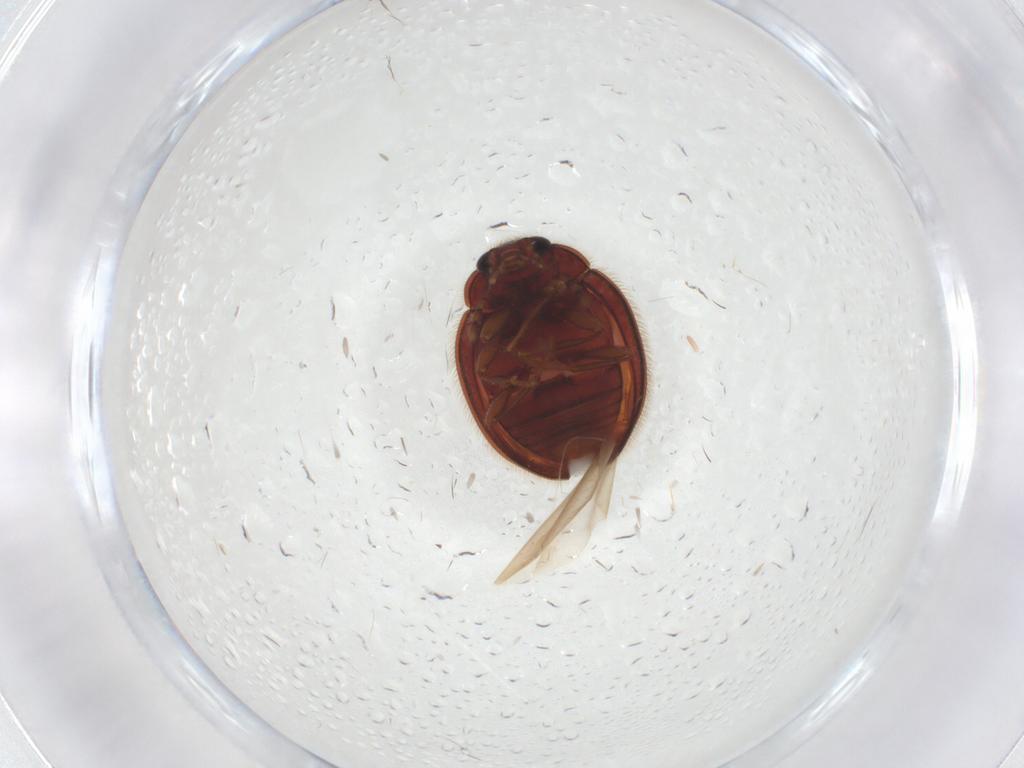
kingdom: Animalia
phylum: Arthropoda
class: Insecta
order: Coleoptera
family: Anamorphidae
